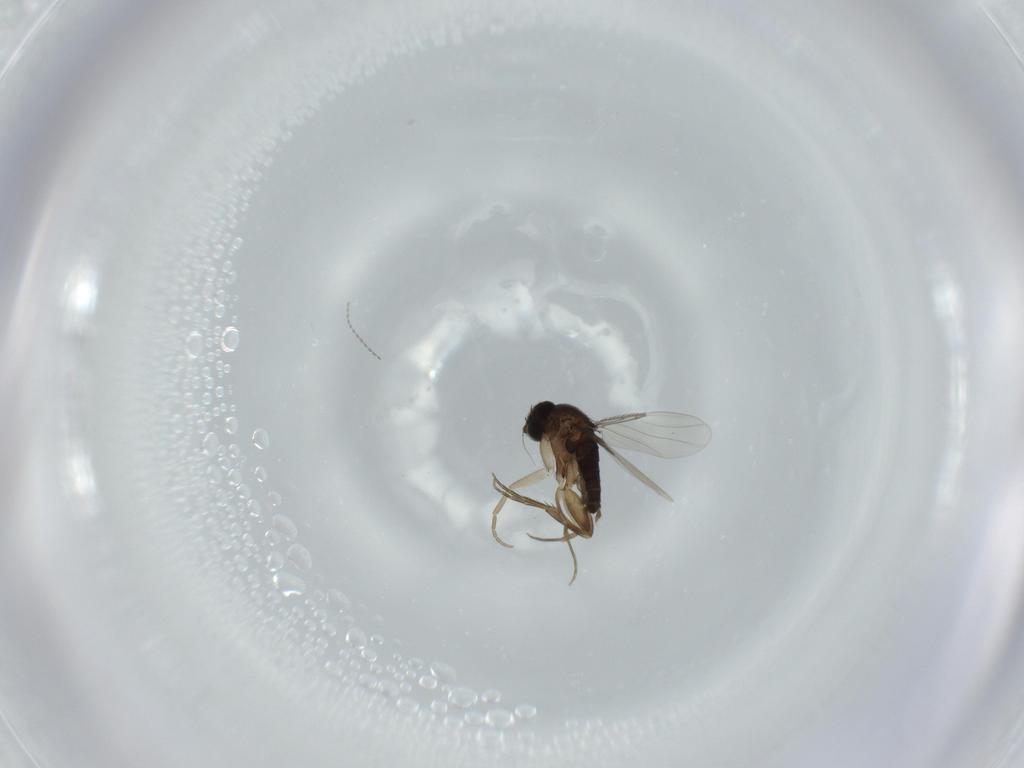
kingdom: Animalia
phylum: Arthropoda
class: Insecta
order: Diptera
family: Phoridae
